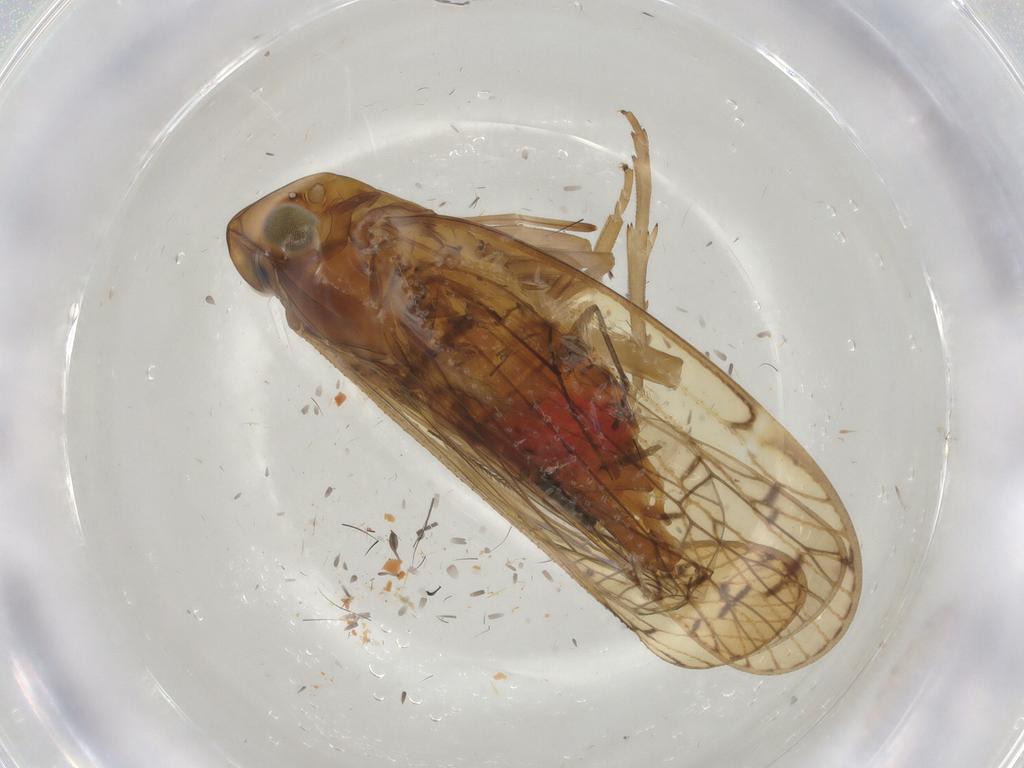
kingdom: Animalia
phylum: Arthropoda
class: Insecta
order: Hemiptera
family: Cixiidae
